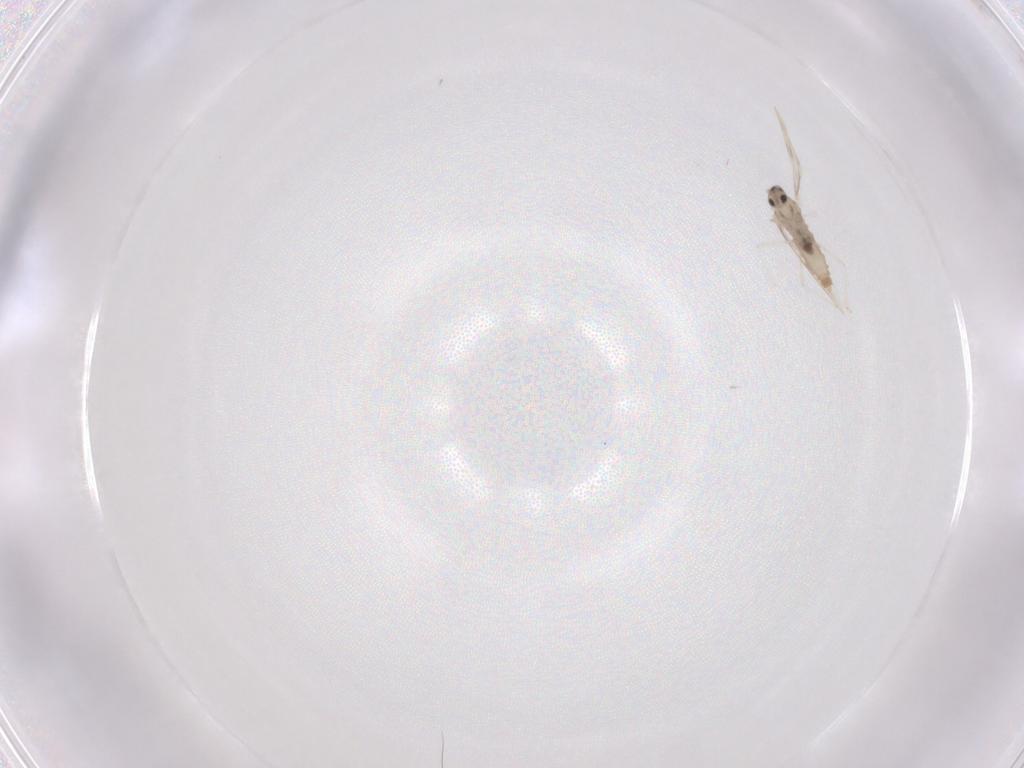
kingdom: Animalia
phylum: Arthropoda
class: Insecta
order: Diptera
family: Cecidomyiidae
